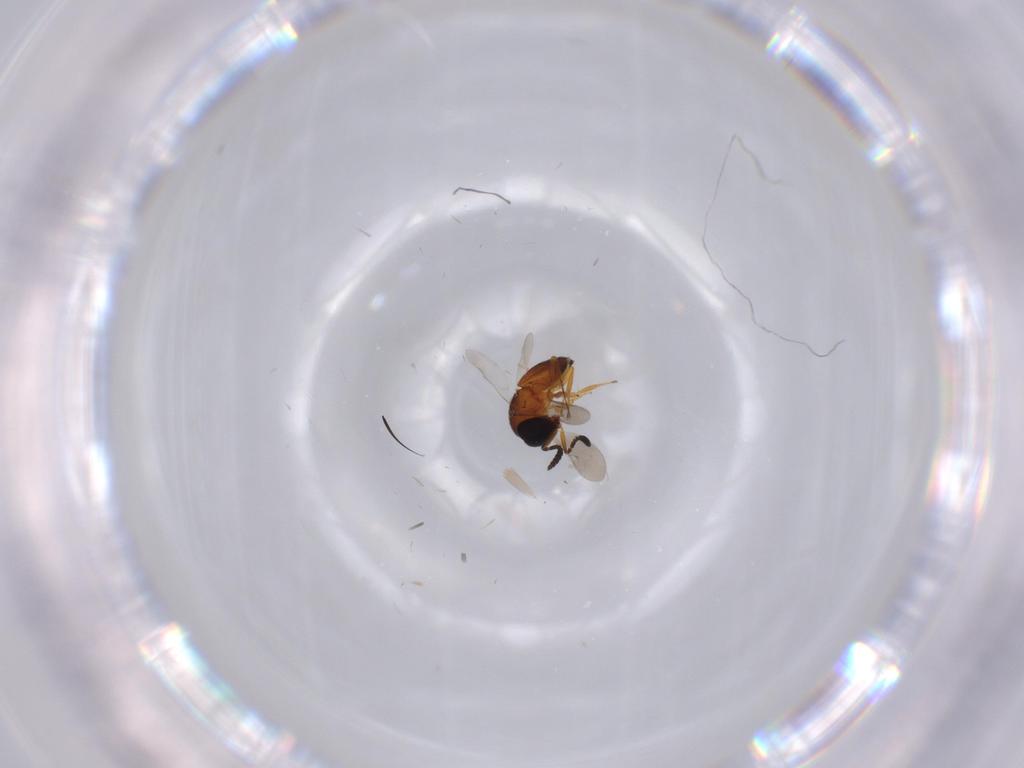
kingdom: Animalia
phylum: Arthropoda
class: Insecta
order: Hymenoptera
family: Scelionidae
